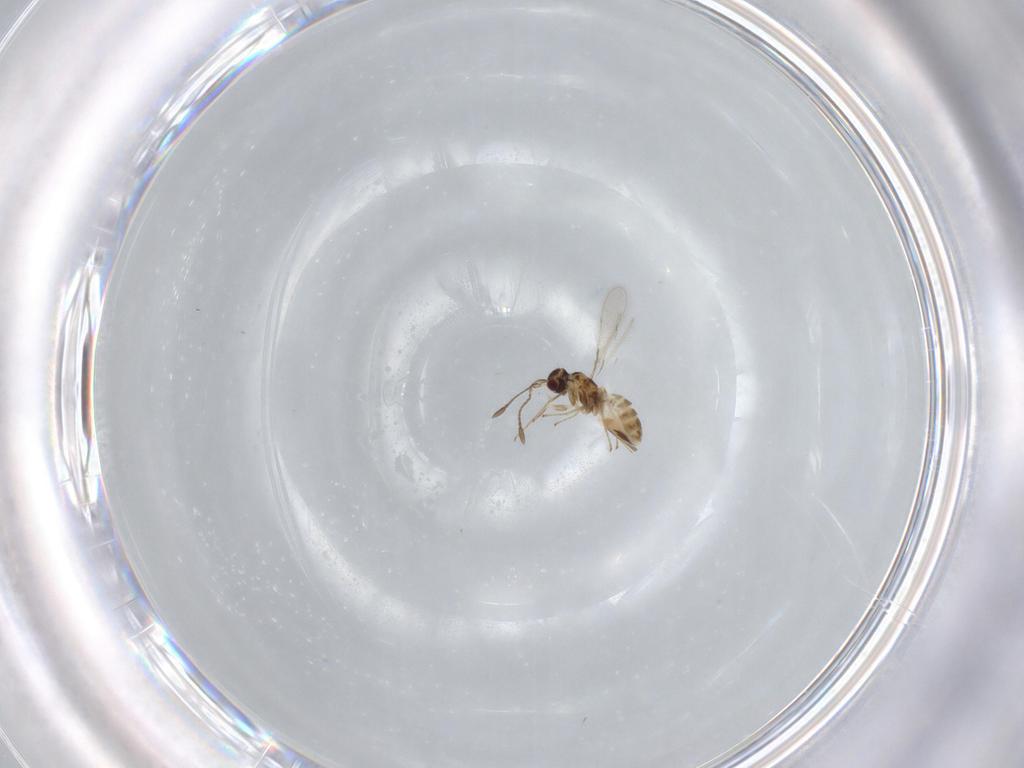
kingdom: Animalia
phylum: Arthropoda
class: Insecta
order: Hymenoptera
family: Mymaridae
